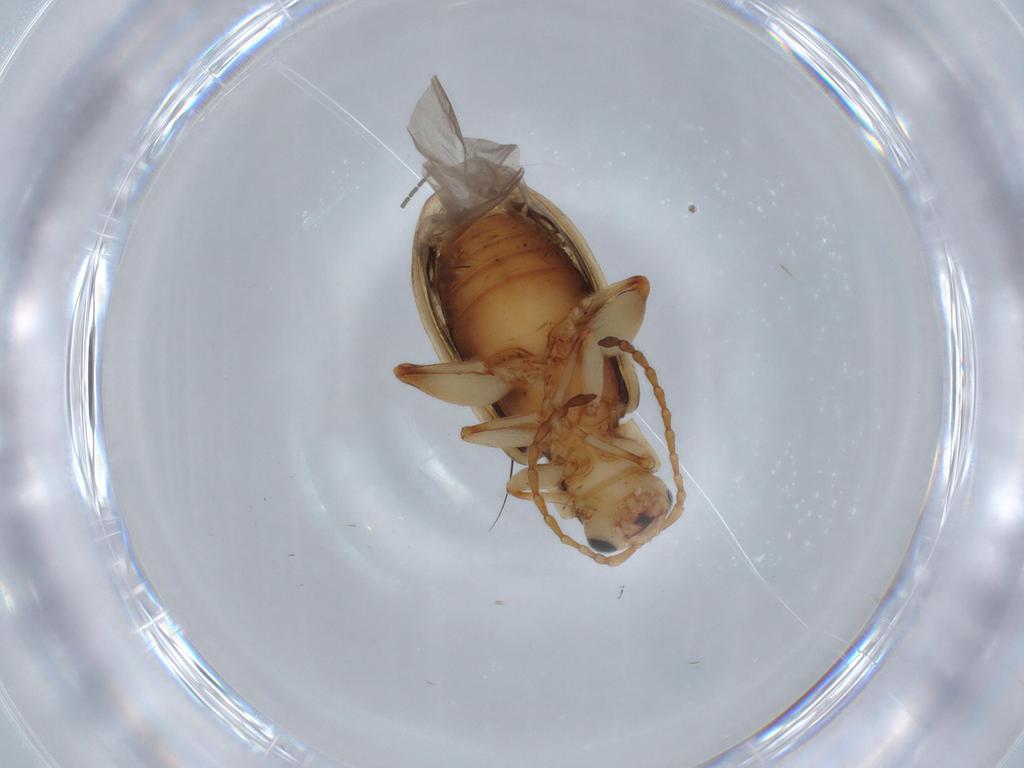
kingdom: Animalia
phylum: Arthropoda
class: Insecta
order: Coleoptera
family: Chrysomelidae
